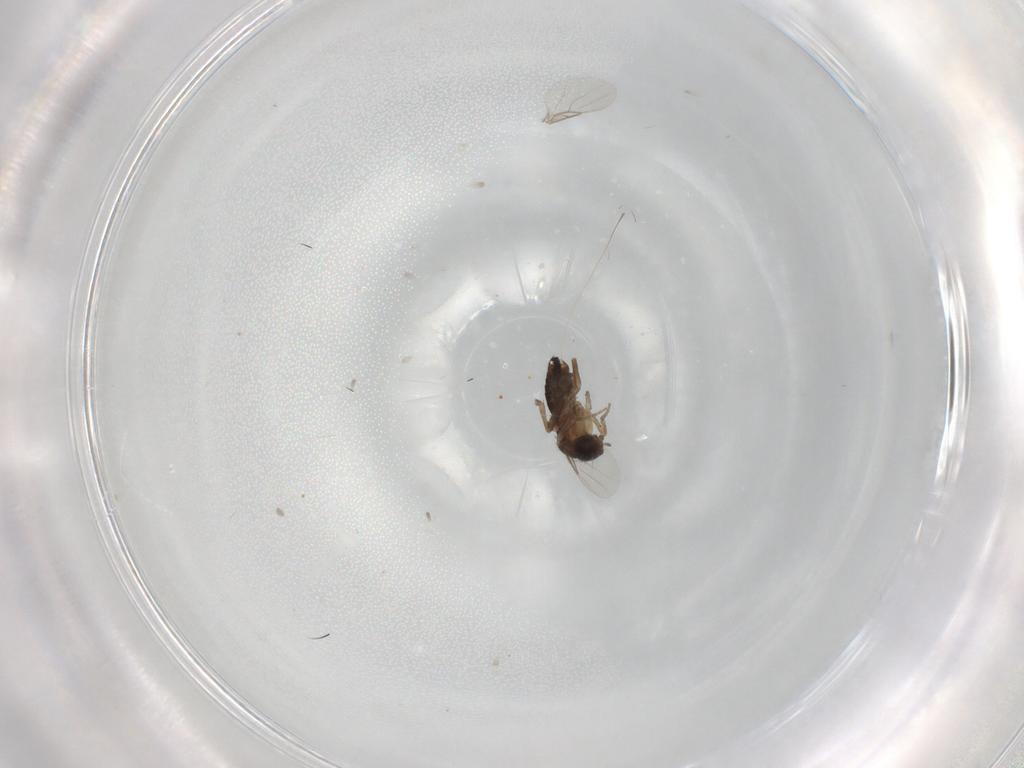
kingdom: Animalia
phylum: Arthropoda
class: Insecta
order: Diptera
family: Phoridae
